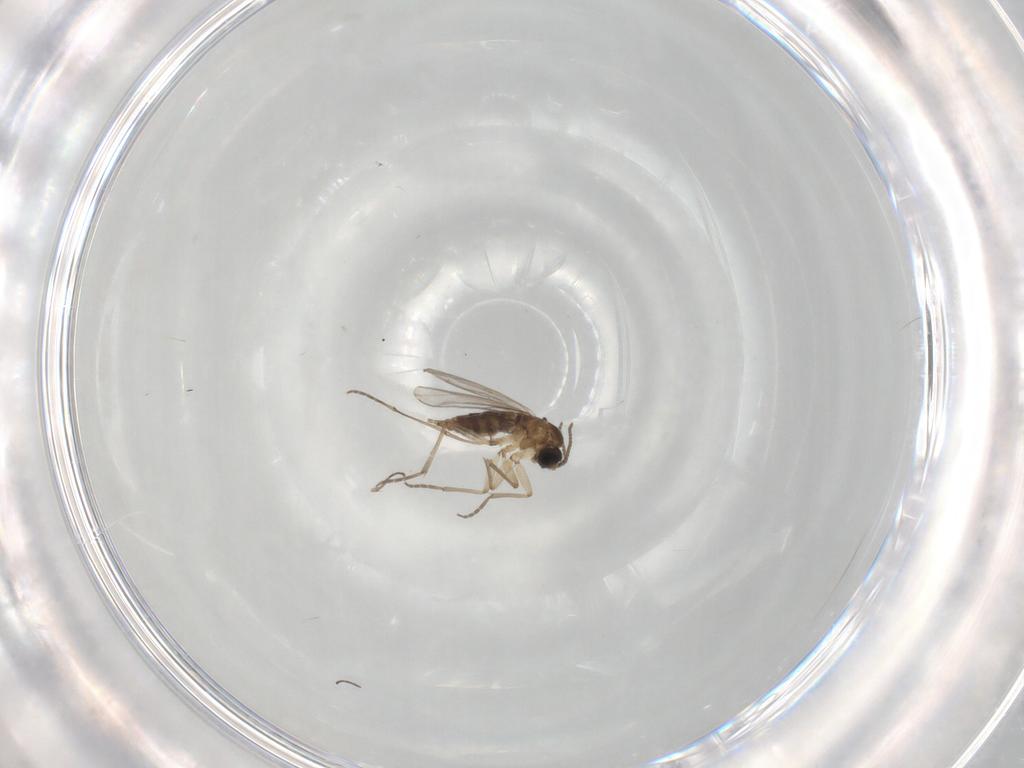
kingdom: Animalia
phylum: Arthropoda
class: Insecta
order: Diptera
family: Sciaridae
